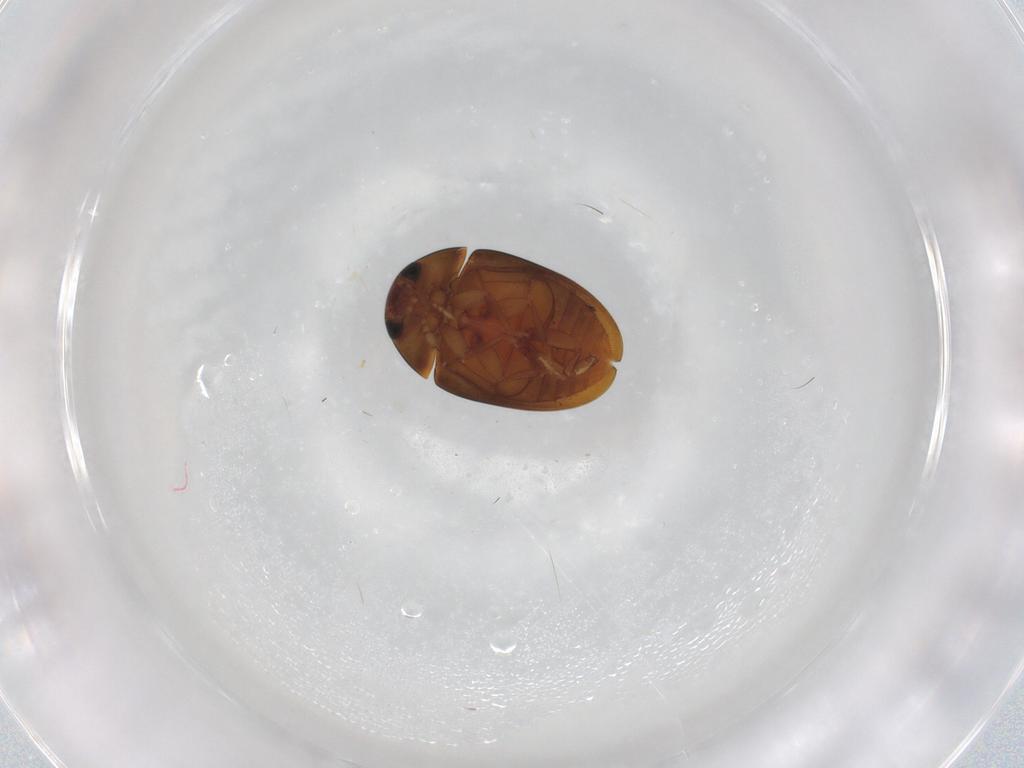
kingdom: Animalia
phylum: Arthropoda
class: Insecta
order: Coleoptera
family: Phalacridae
